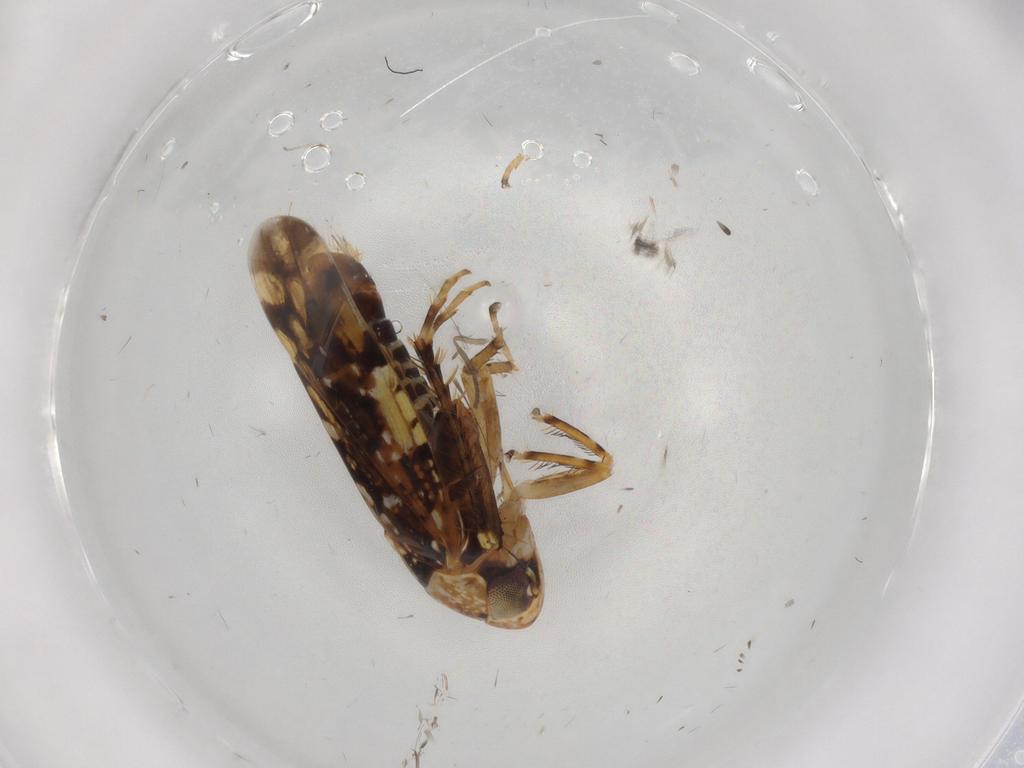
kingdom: Animalia
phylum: Arthropoda
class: Insecta
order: Hemiptera
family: Cicadellidae
